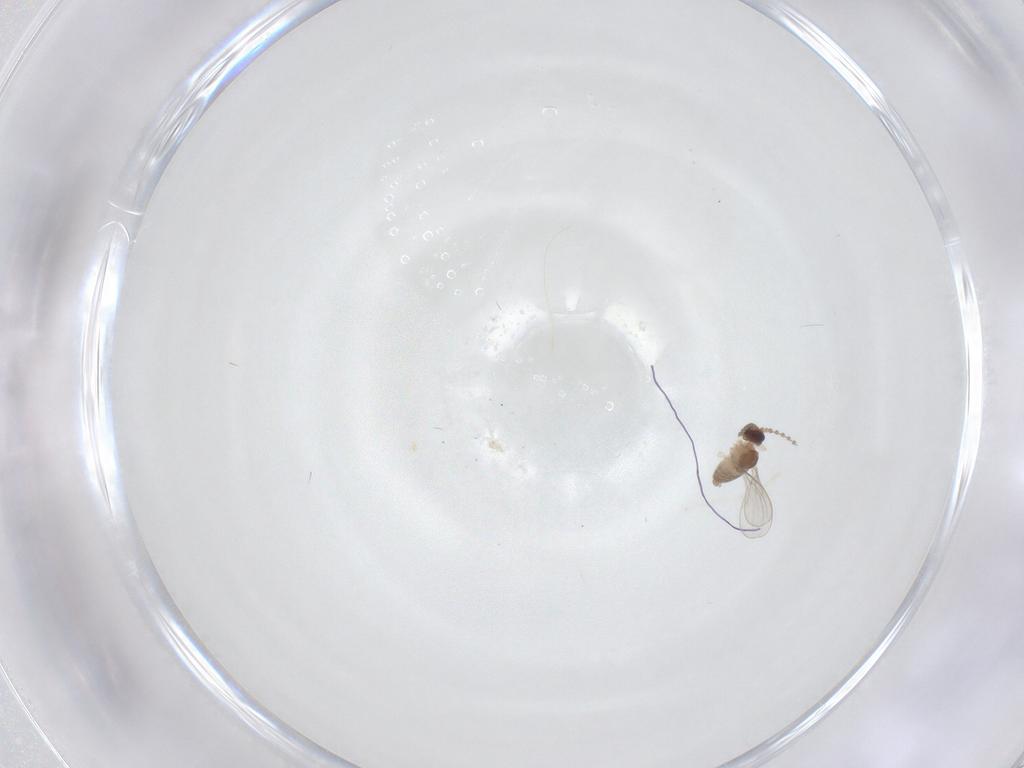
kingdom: Animalia
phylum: Arthropoda
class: Insecta
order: Diptera
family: Cecidomyiidae
